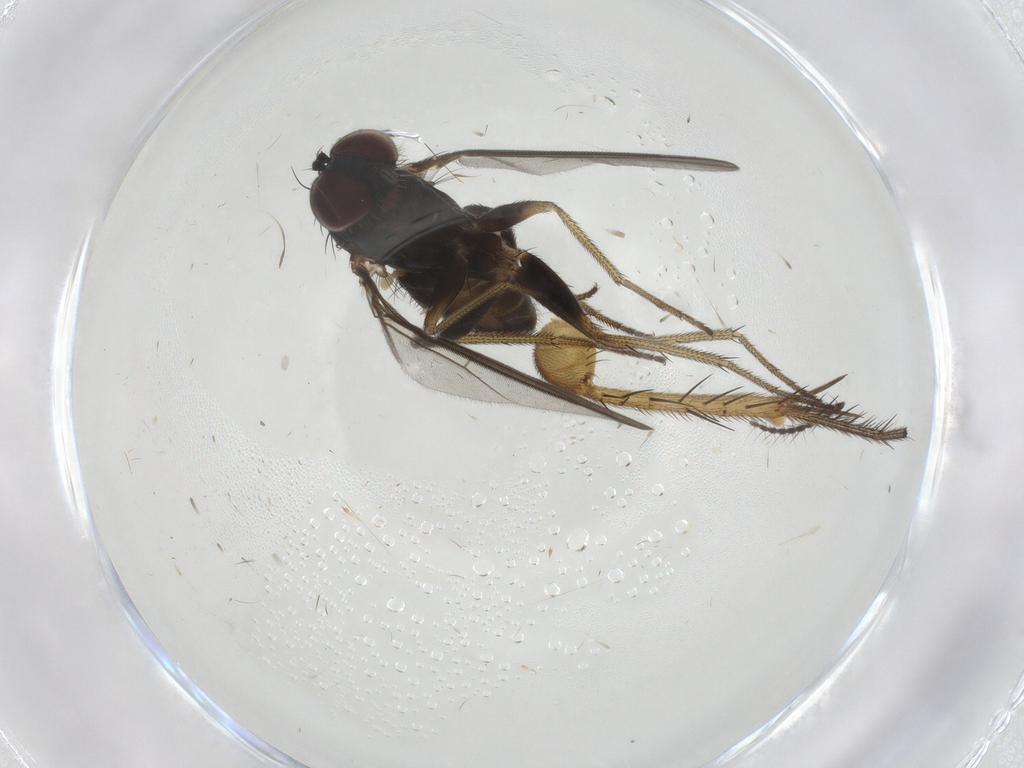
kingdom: Animalia
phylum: Arthropoda
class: Insecta
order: Diptera
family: Limoniidae
